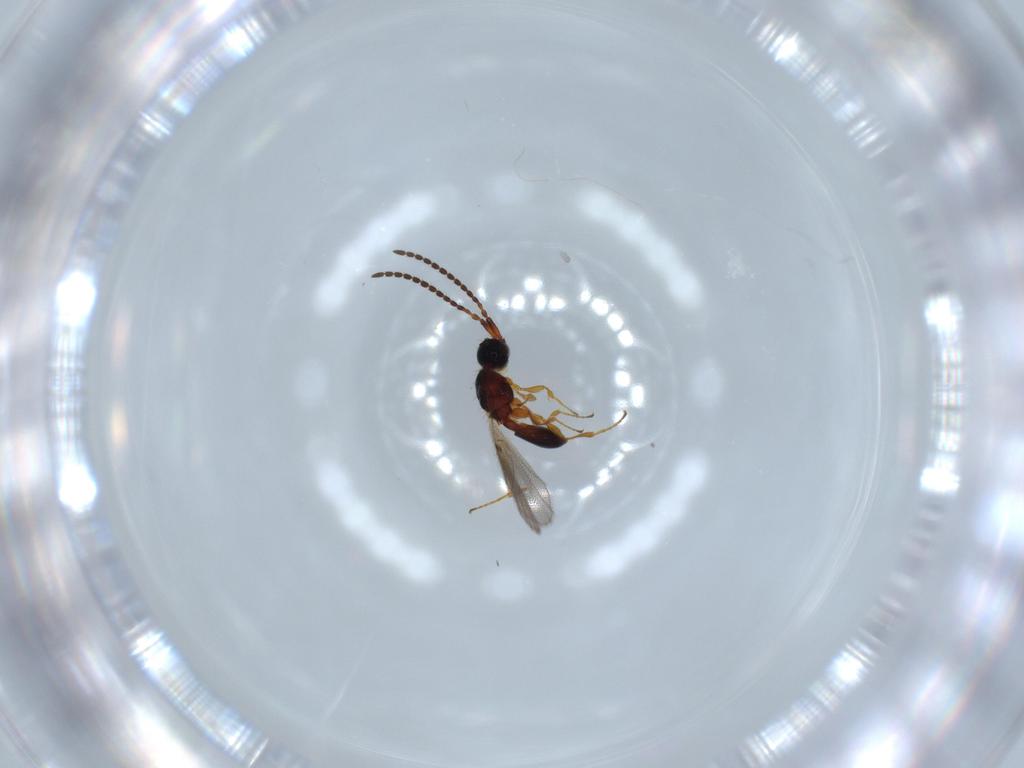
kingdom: Animalia
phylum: Arthropoda
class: Insecta
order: Hymenoptera
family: Diapriidae
